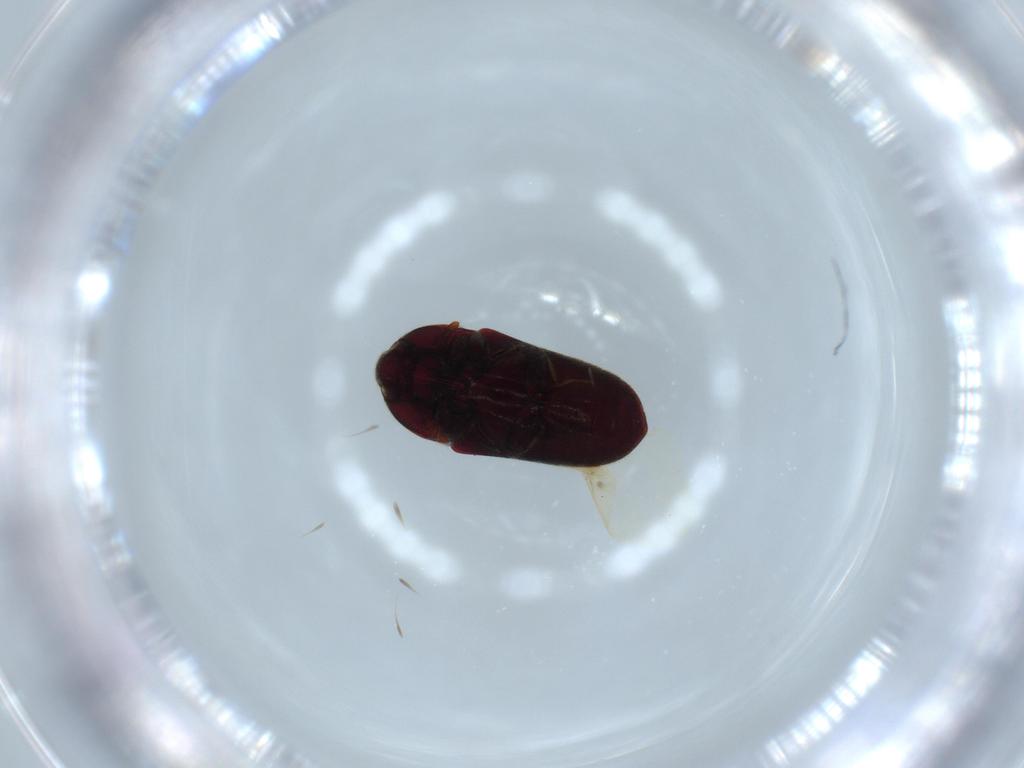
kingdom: Animalia
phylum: Arthropoda
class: Insecta
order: Coleoptera
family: Throscidae
